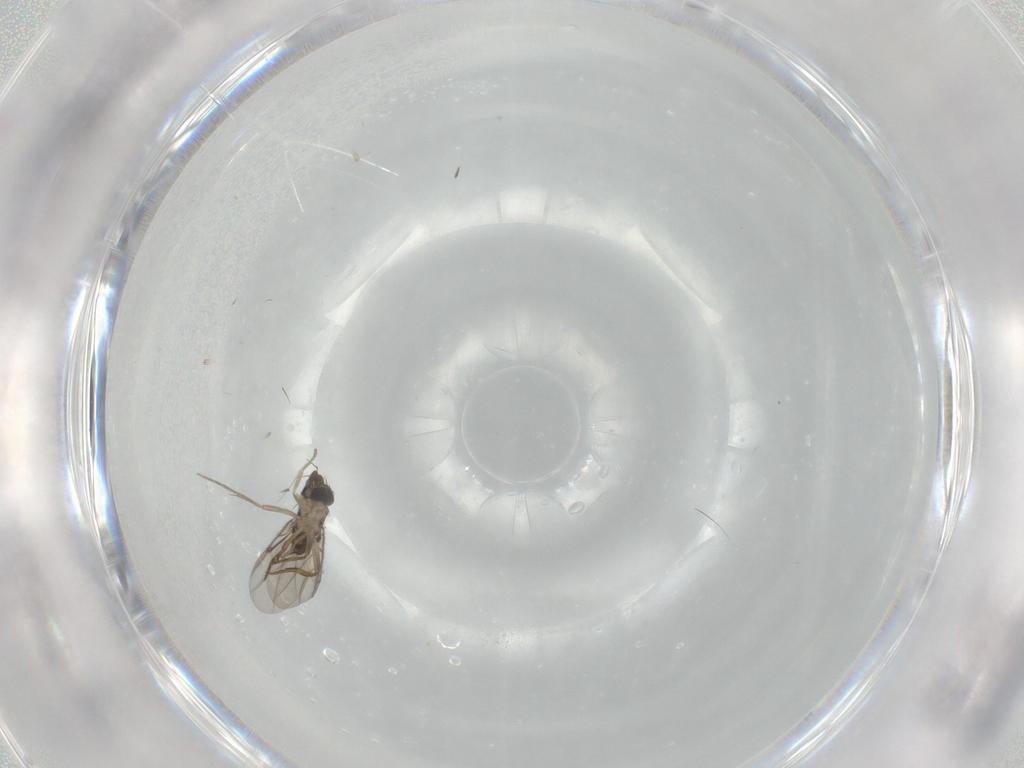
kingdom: Animalia
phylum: Arthropoda
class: Insecta
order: Diptera
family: Phoridae
